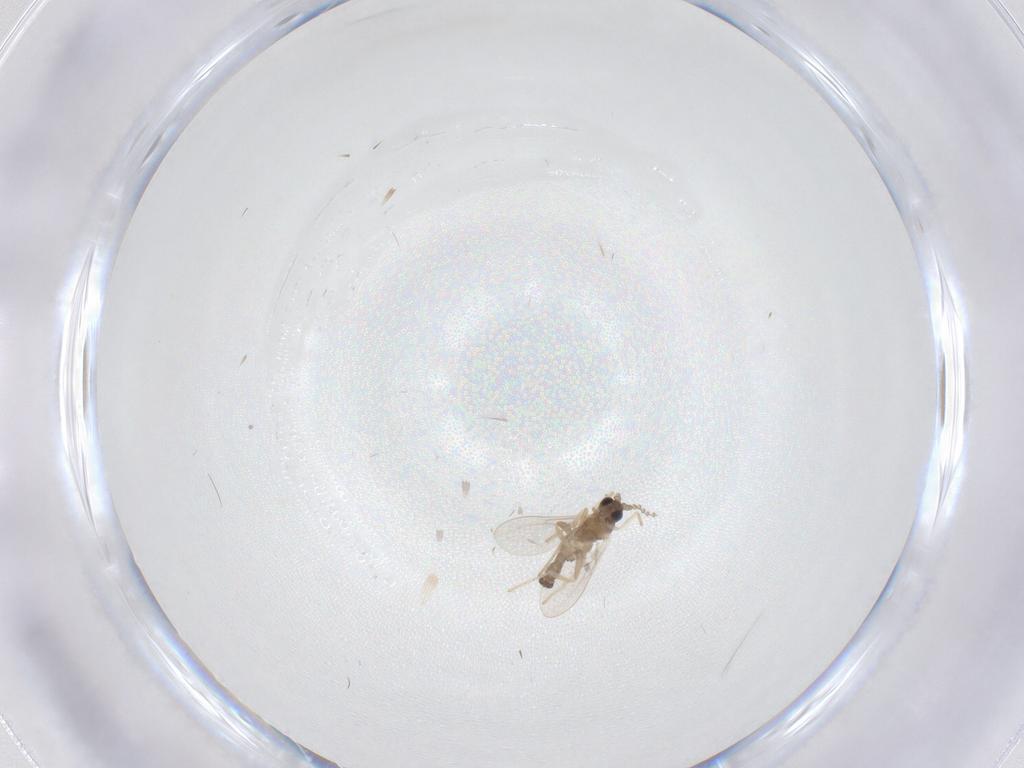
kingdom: Animalia
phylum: Arthropoda
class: Insecta
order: Diptera
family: Cecidomyiidae
